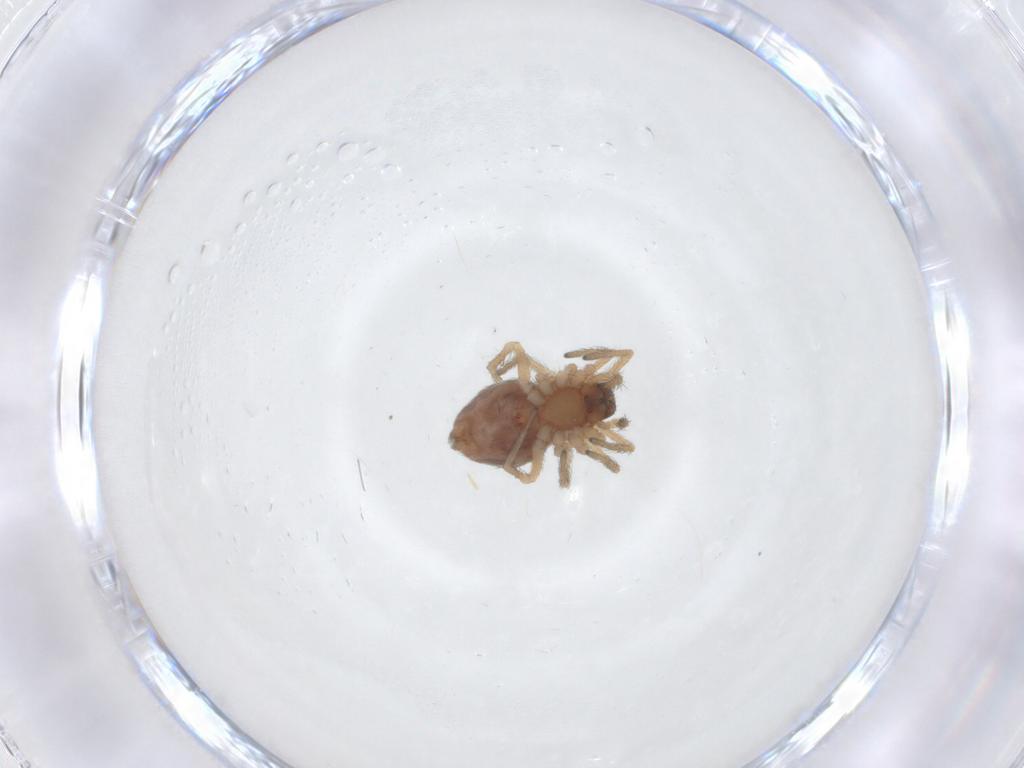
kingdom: Animalia
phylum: Arthropoda
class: Arachnida
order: Araneae
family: Dictynidae
